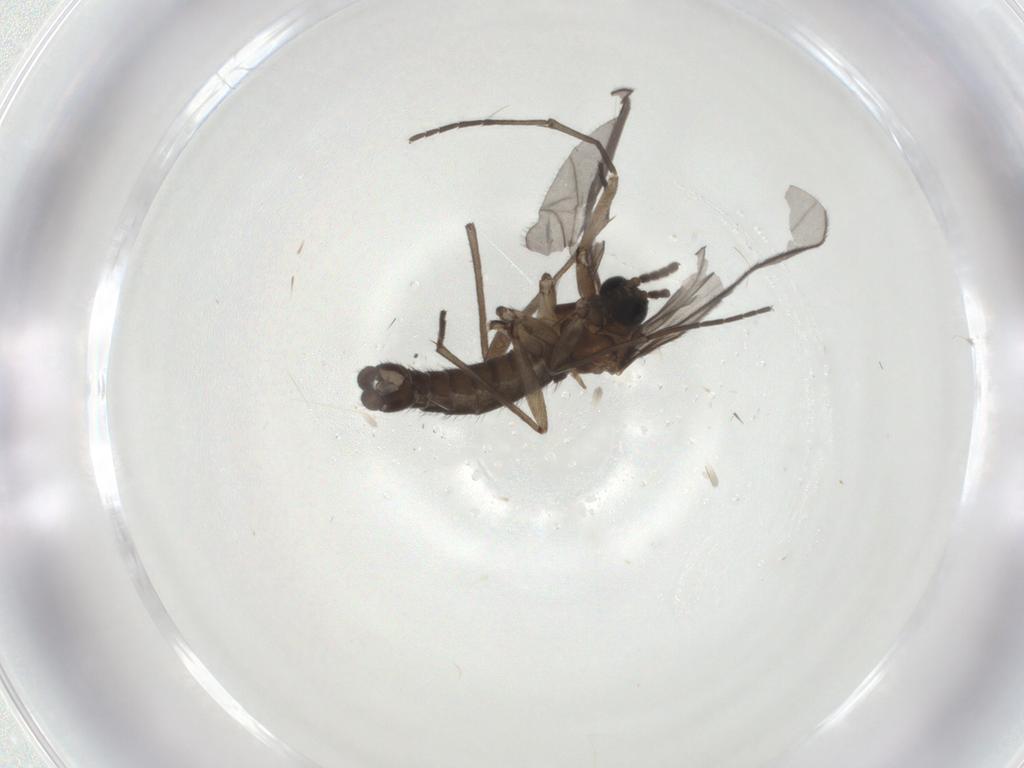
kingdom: Animalia
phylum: Arthropoda
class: Insecta
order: Diptera
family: Sciaridae
